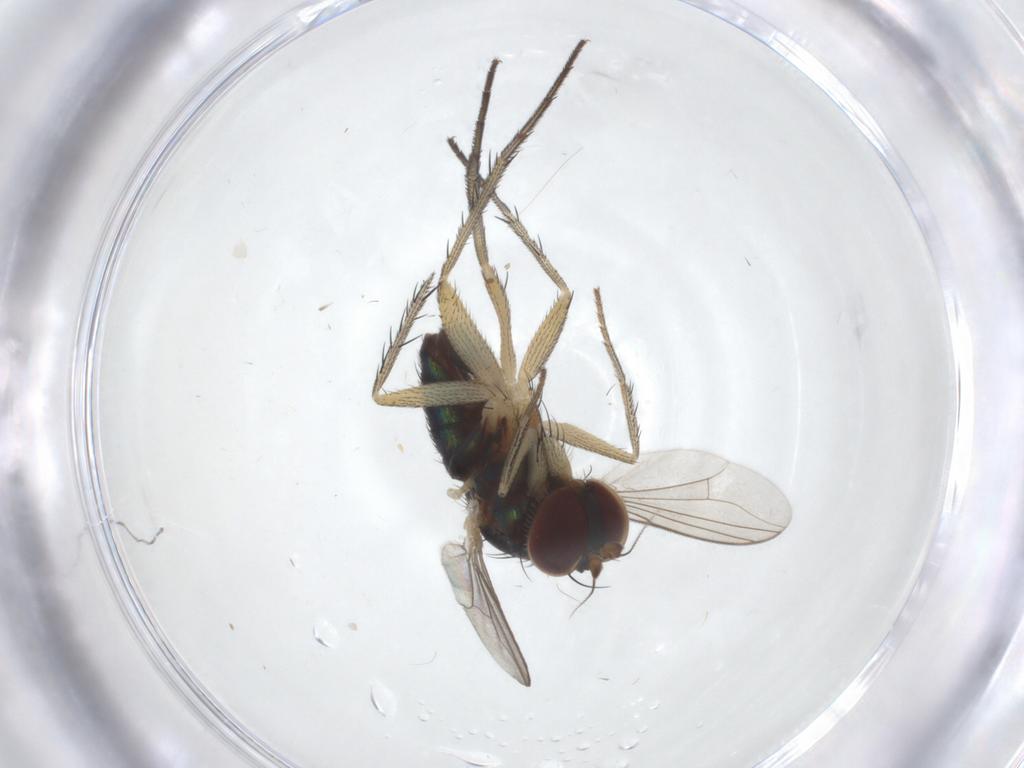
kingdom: Animalia
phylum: Arthropoda
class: Insecta
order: Diptera
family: Dolichopodidae
